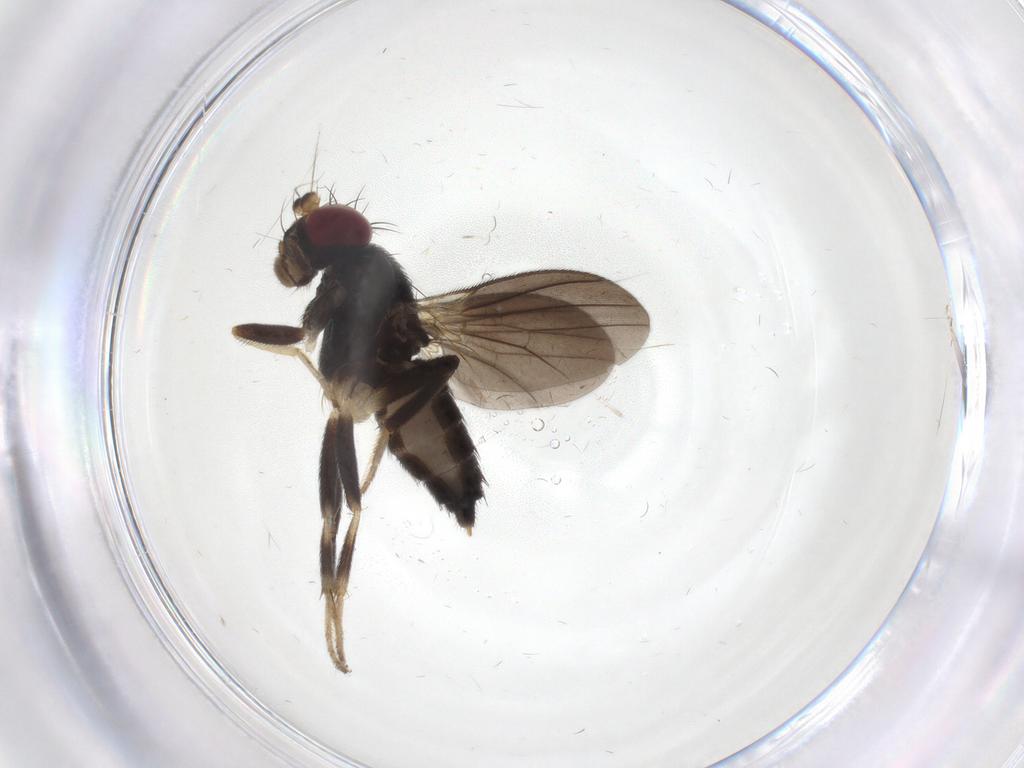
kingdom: Animalia
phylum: Arthropoda
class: Insecta
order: Diptera
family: Clusiidae
